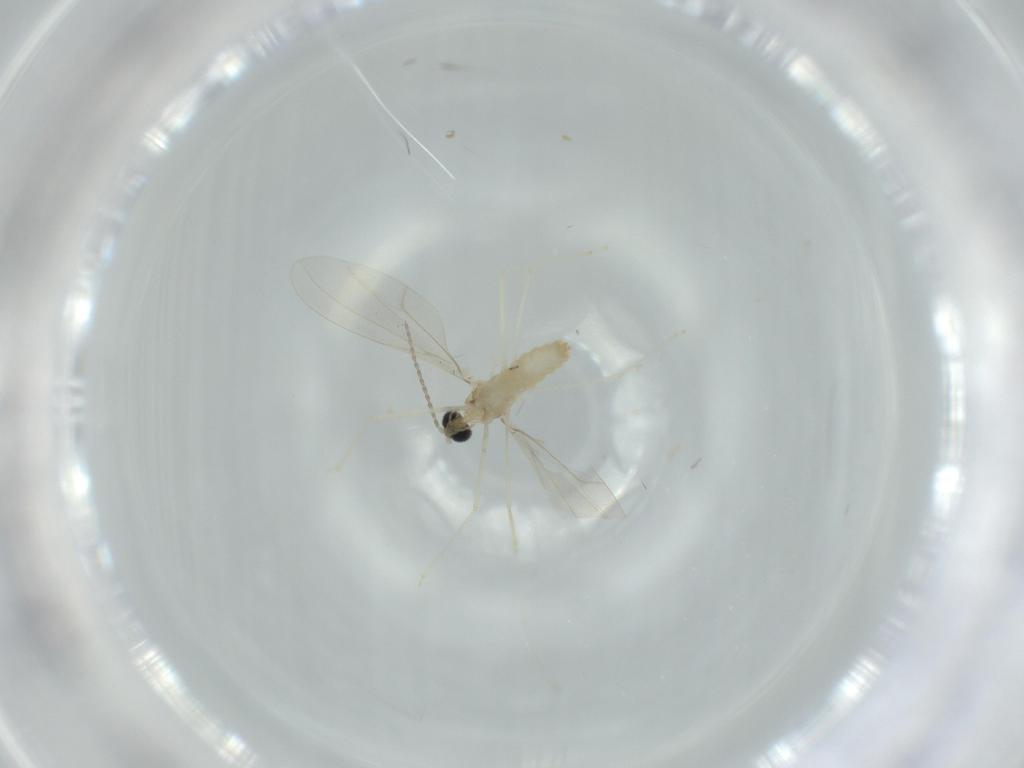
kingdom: Animalia
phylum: Arthropoda
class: Insecta
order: Diptera
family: Cecidomyiidae
